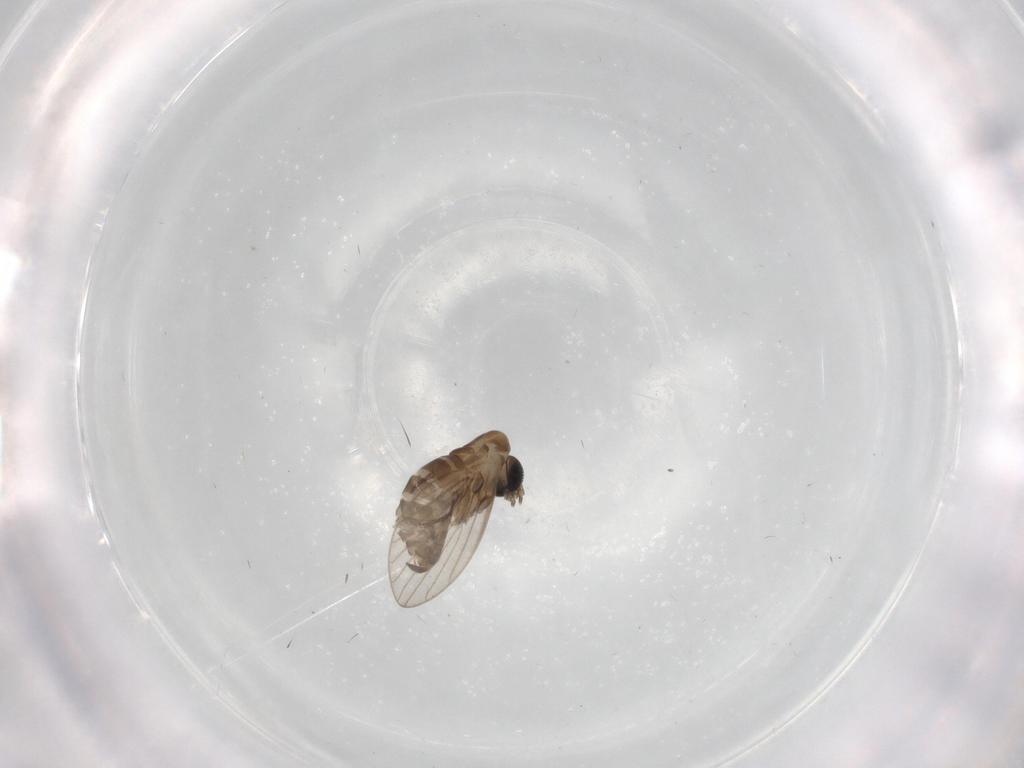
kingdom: Animalia
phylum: Arthropoda
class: Insecta
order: Diptera
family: Psychodidae
